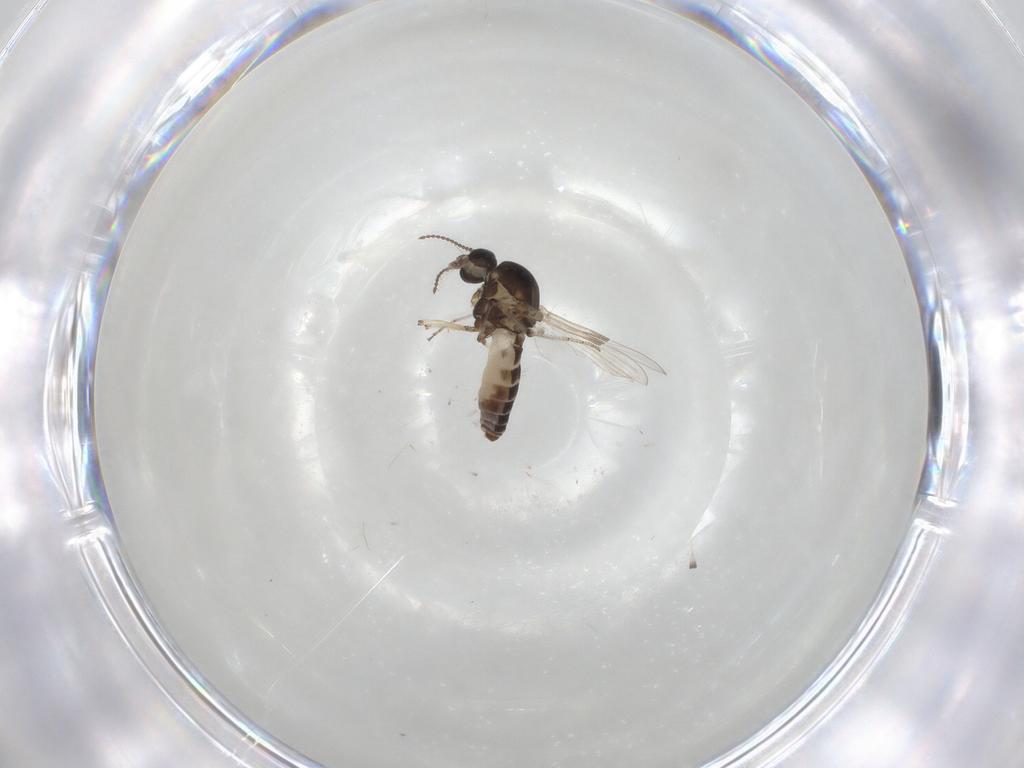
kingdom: Animalia
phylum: Arthropoda
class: Insecta
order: Diptera
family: Ceratopogonidae
